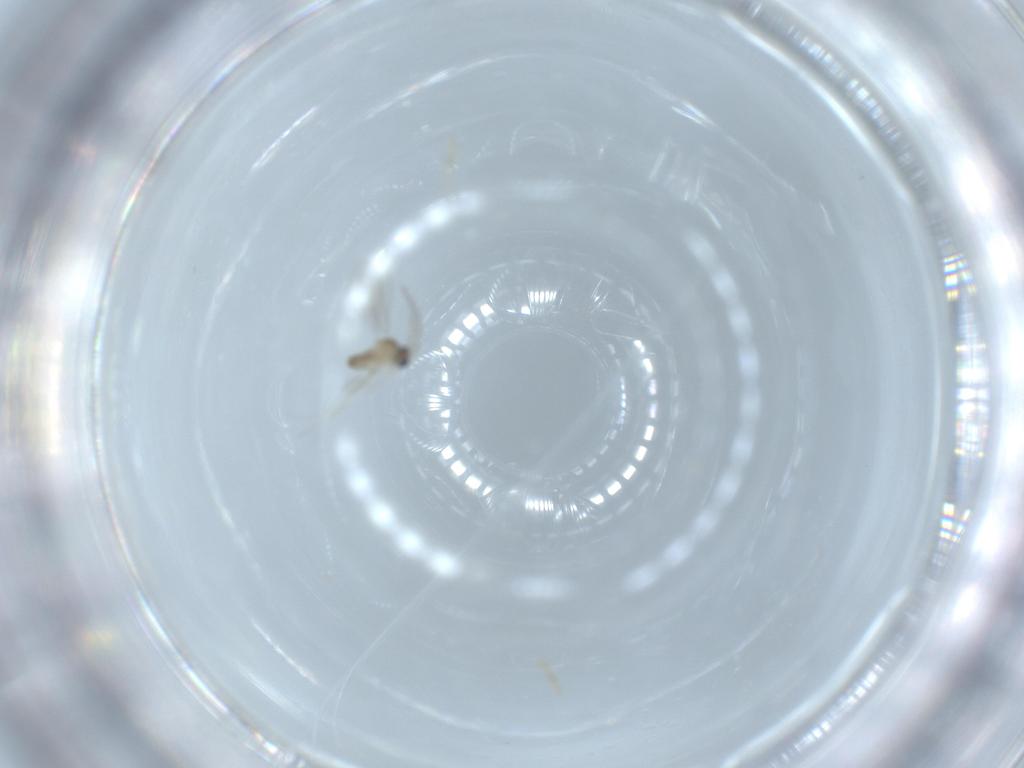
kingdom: Animalia
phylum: Arthropoda
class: Insecta
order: Diptera
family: Cecidomyiidae
